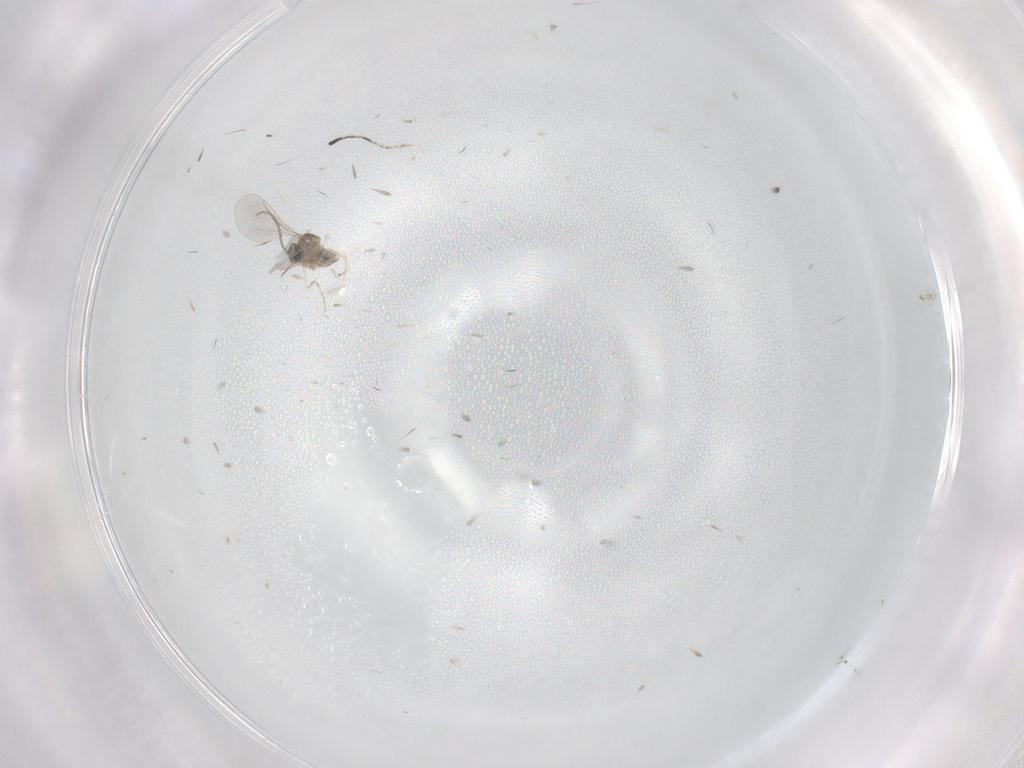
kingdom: Animalia
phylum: Arthropoda
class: Insecta
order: Diptera
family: Cecidomyiidae
